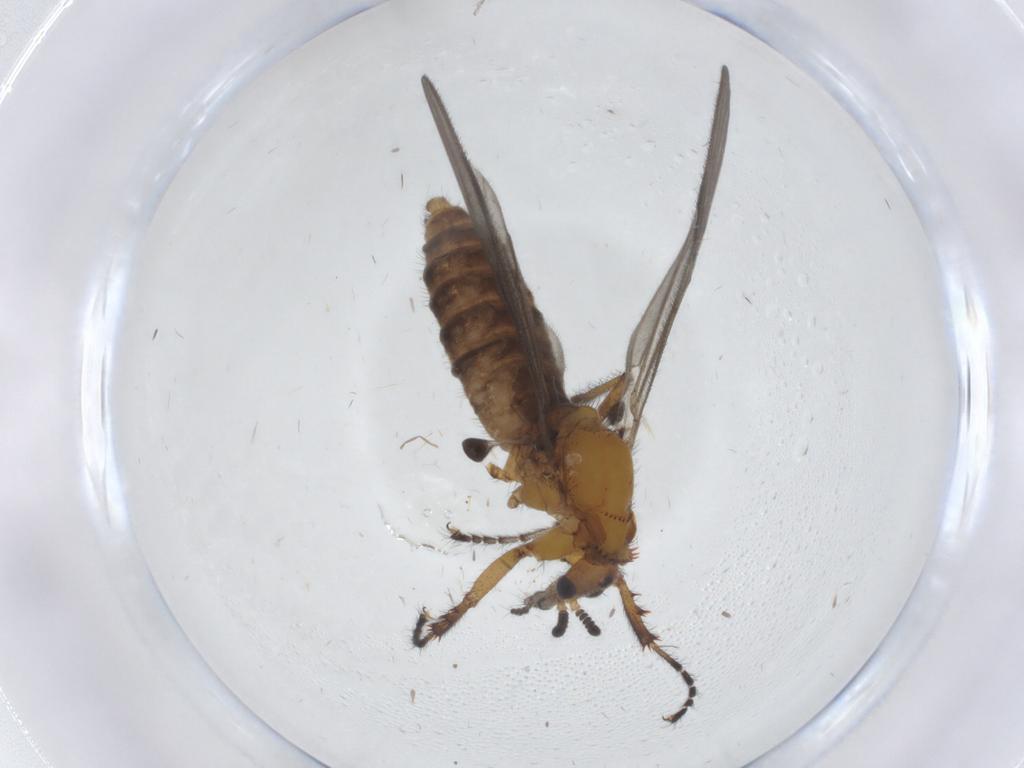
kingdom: Animalia
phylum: Arthropoda
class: Insecta
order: Diptera
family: Bibionidae
